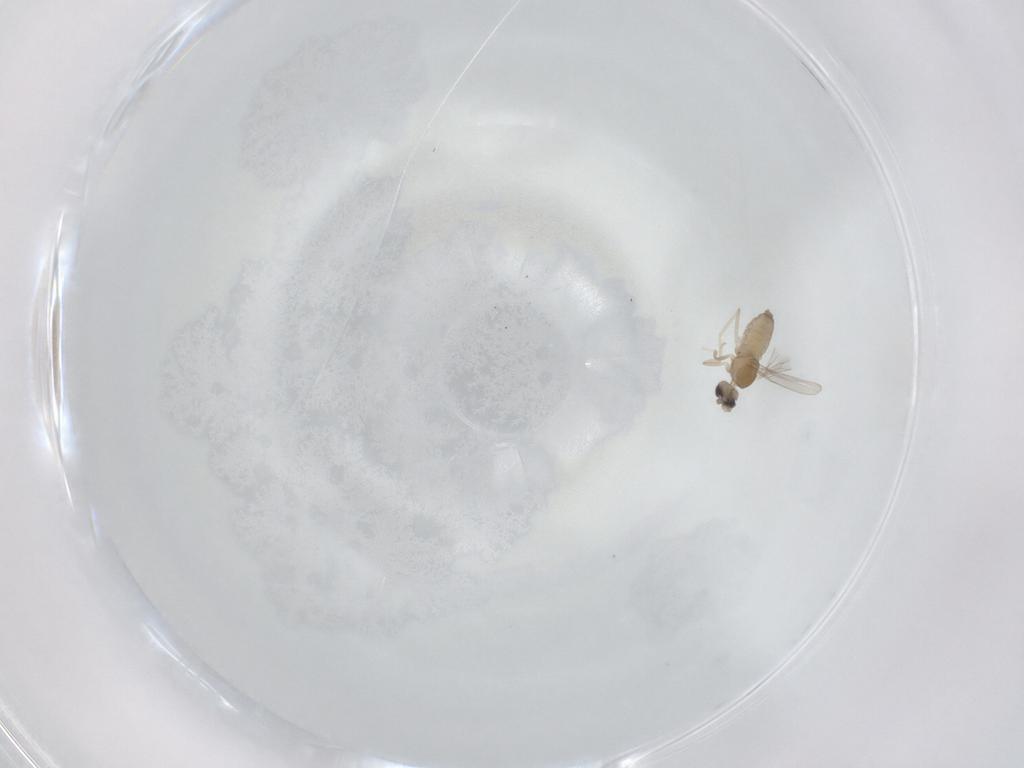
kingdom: Animalia
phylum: Arthropoda
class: Insecta
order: Diptera
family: Cecidomyiidae
